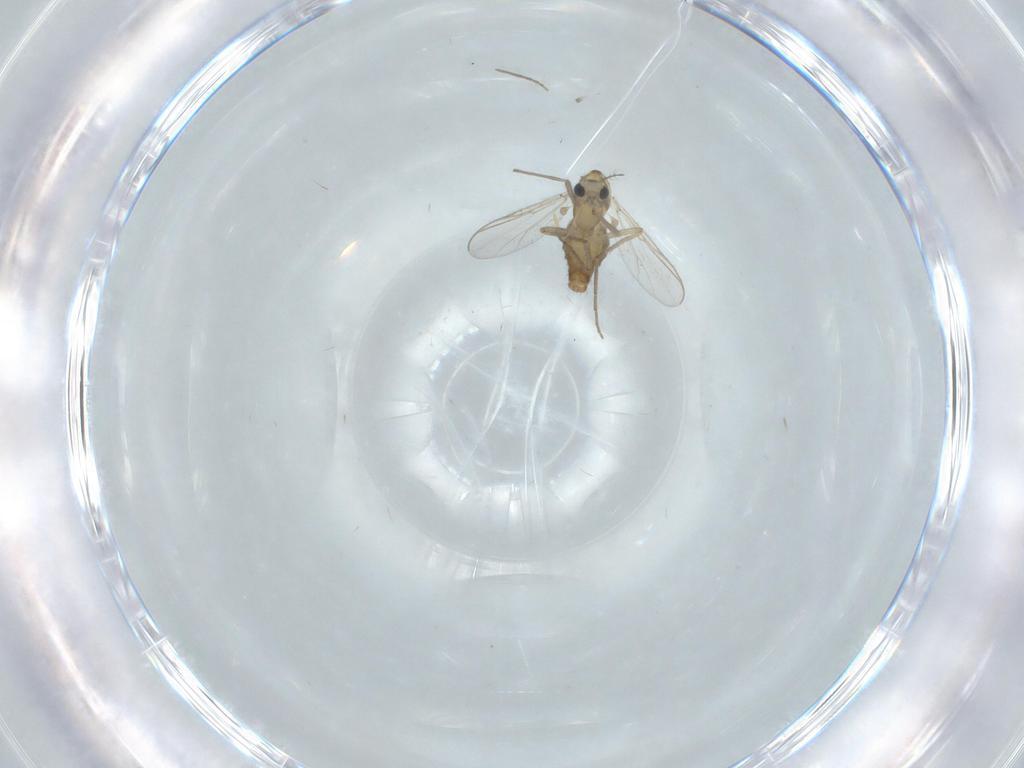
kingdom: Animalia
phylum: Arthropoda
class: Insecta
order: Diptera
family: Chironomidae
